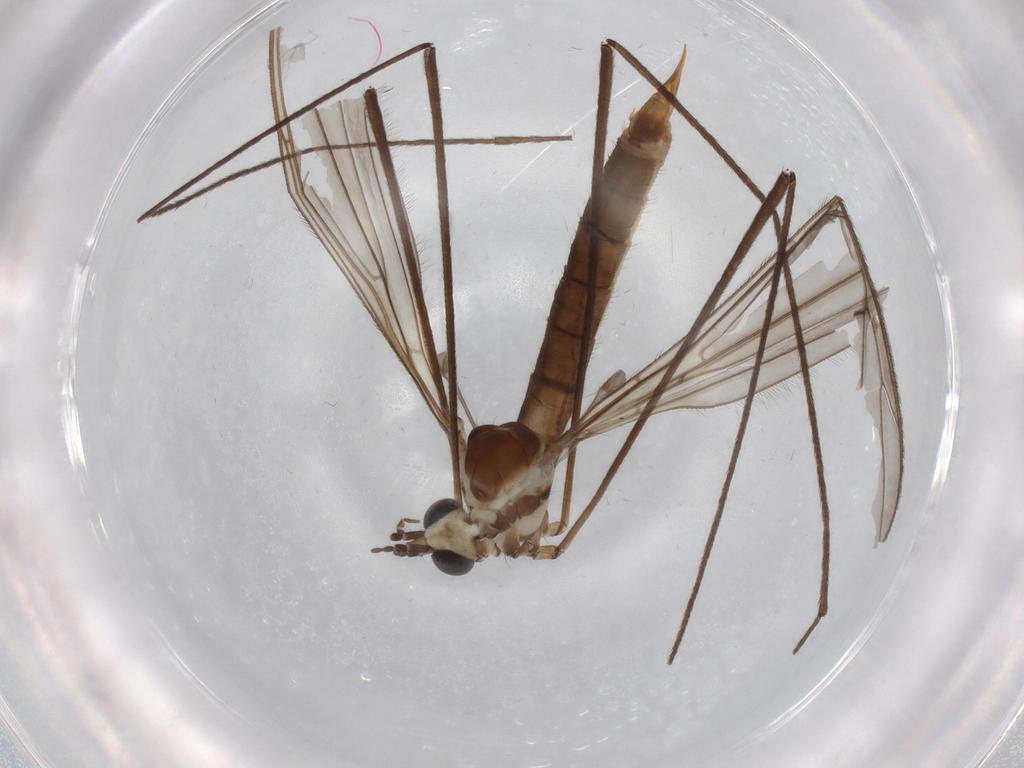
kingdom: Animalia
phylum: Arthropoda
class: Insecta
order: Diptera
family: Limoniidae
